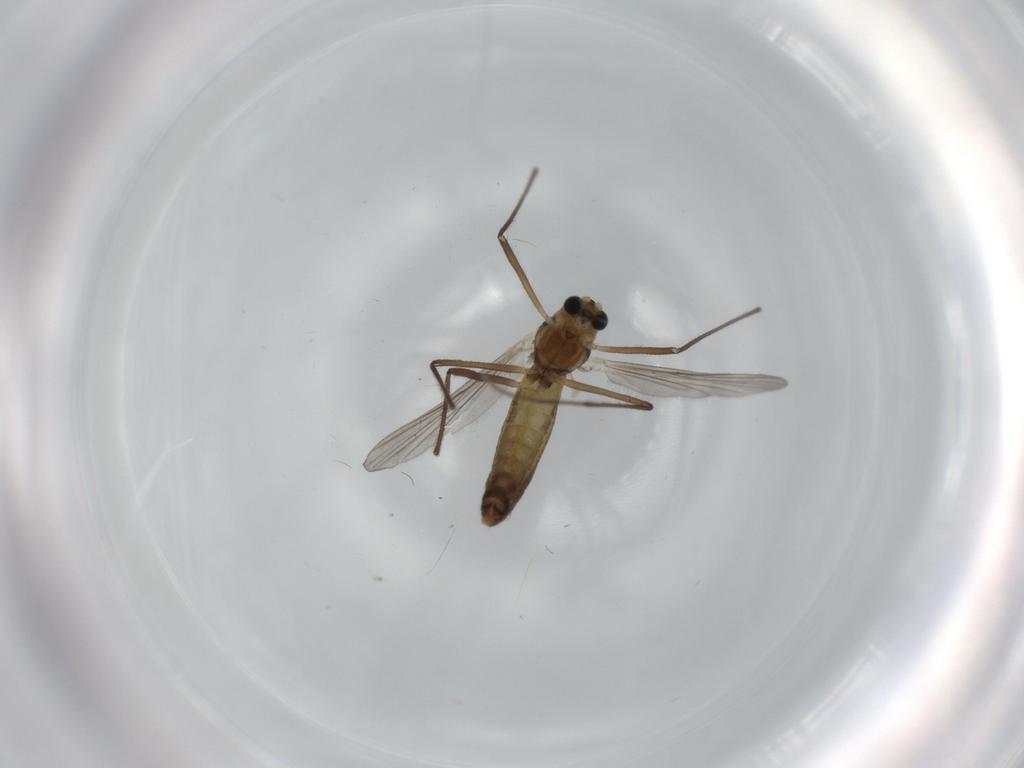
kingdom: Animalia
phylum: Arthropoda
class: Insecta
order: Diptera
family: Chironomidae
